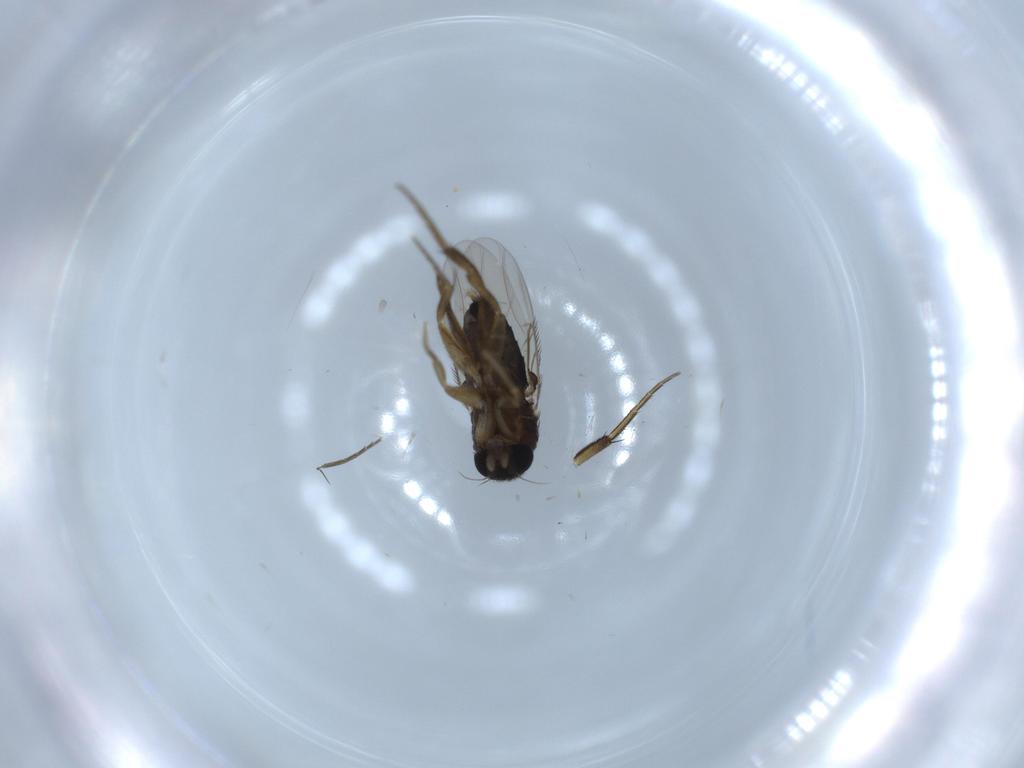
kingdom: Animalia
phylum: Arthropoda
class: Insecta
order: Diptera
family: Phoridae
